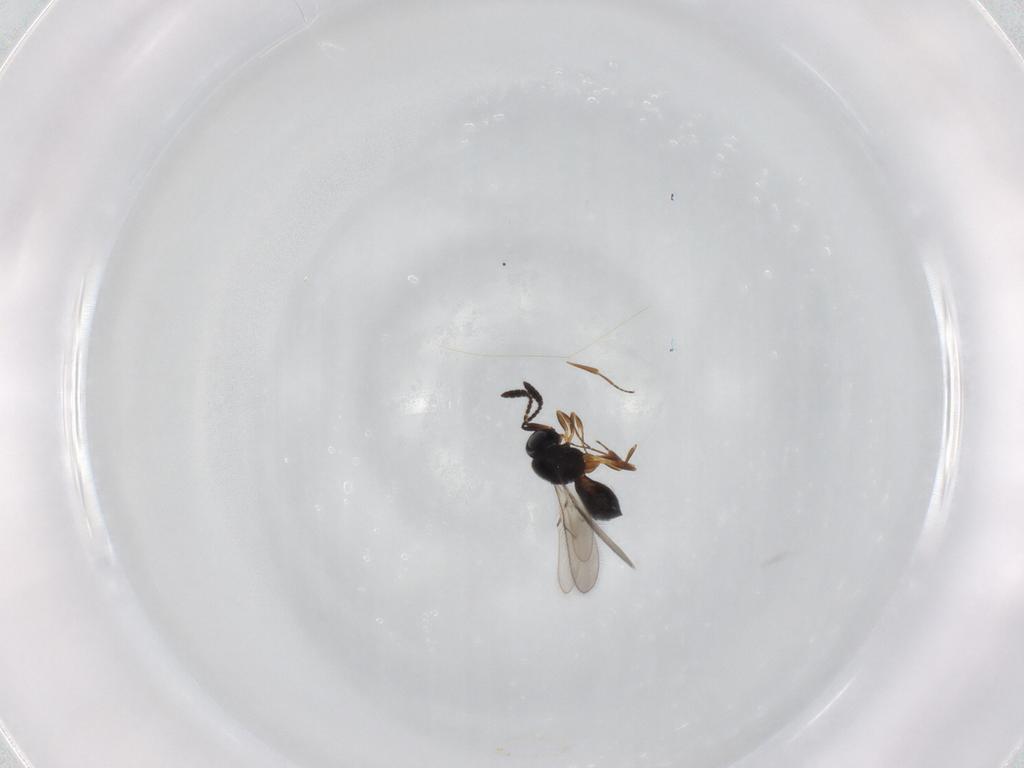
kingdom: Animalia
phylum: Arthropoda
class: Insecta
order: Hymenoptera
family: Scelionidae
